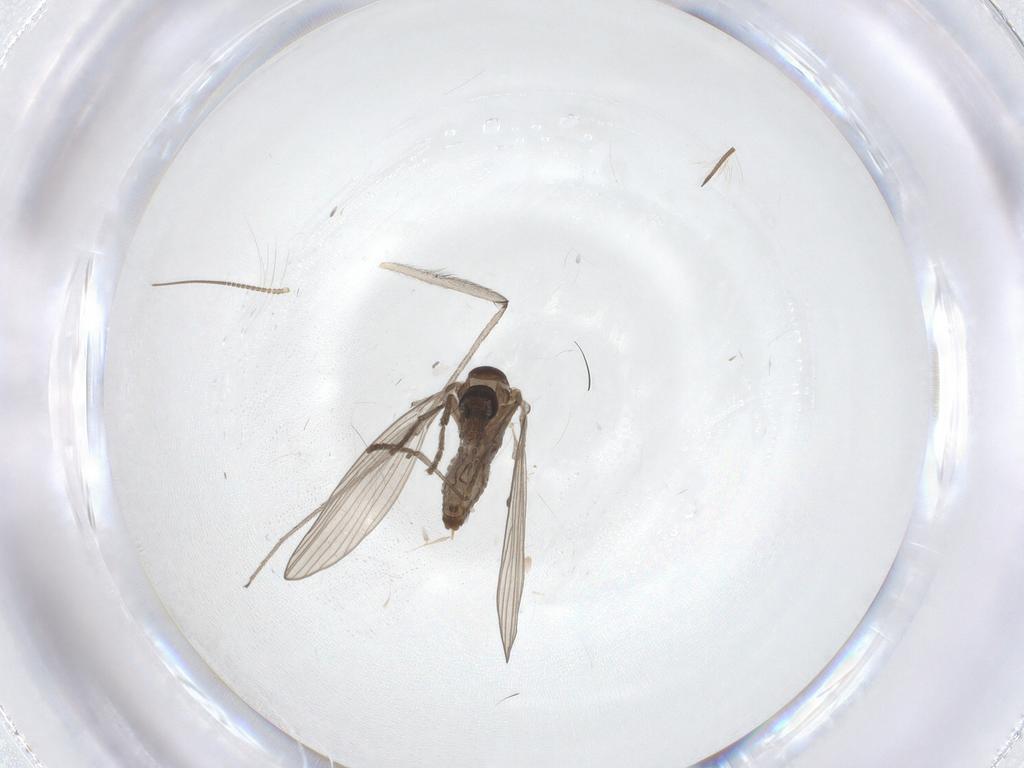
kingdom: Animalia
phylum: Arthropoda
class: Insecta
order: Diptera
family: Chironomidae
